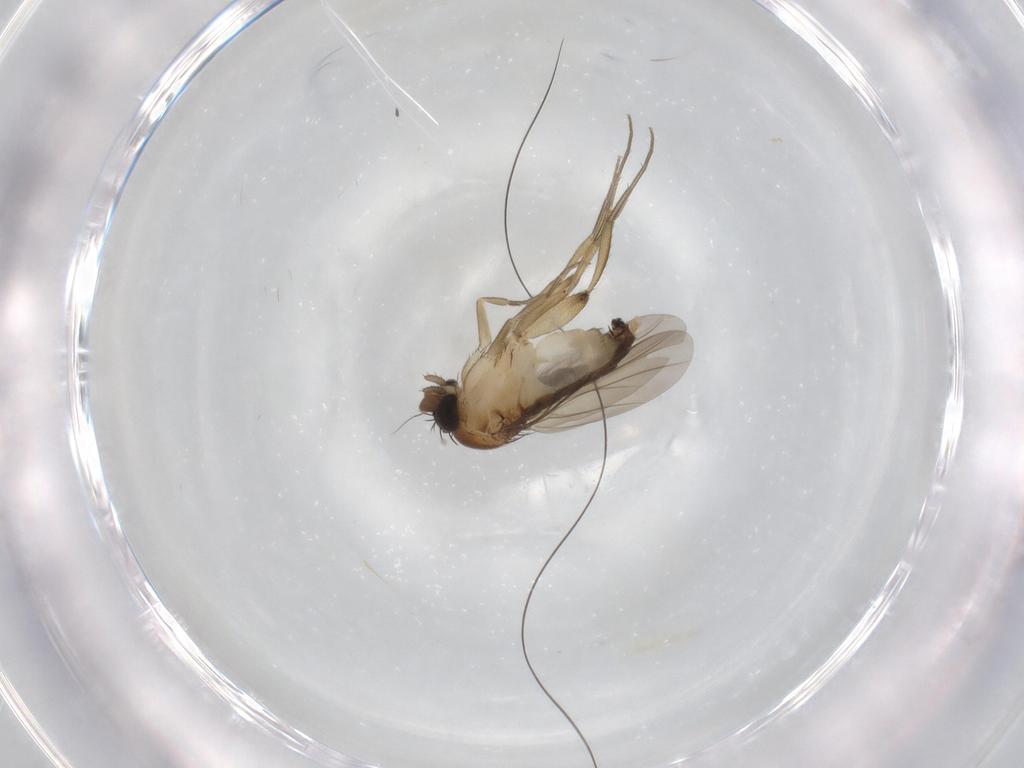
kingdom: Animalia
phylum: Arthropoda
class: Insecta
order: Diptera
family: Phoridae
